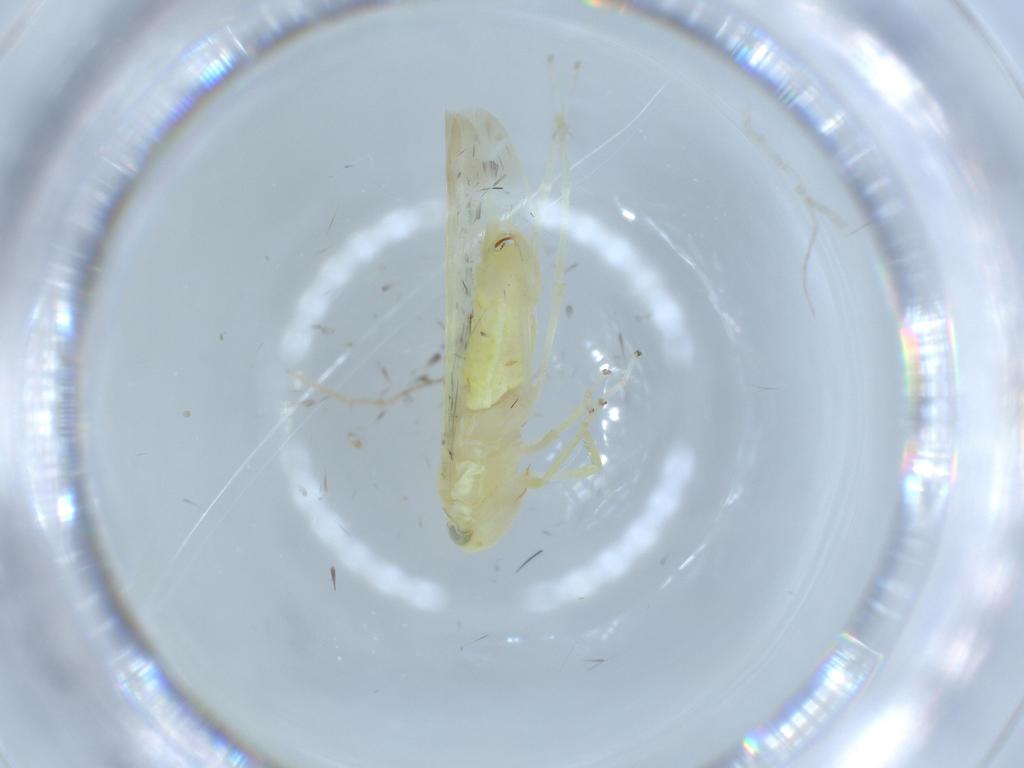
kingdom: Animalia
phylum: Arthropoda
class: Insecta
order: Hemiptera
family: Cicadellidae
